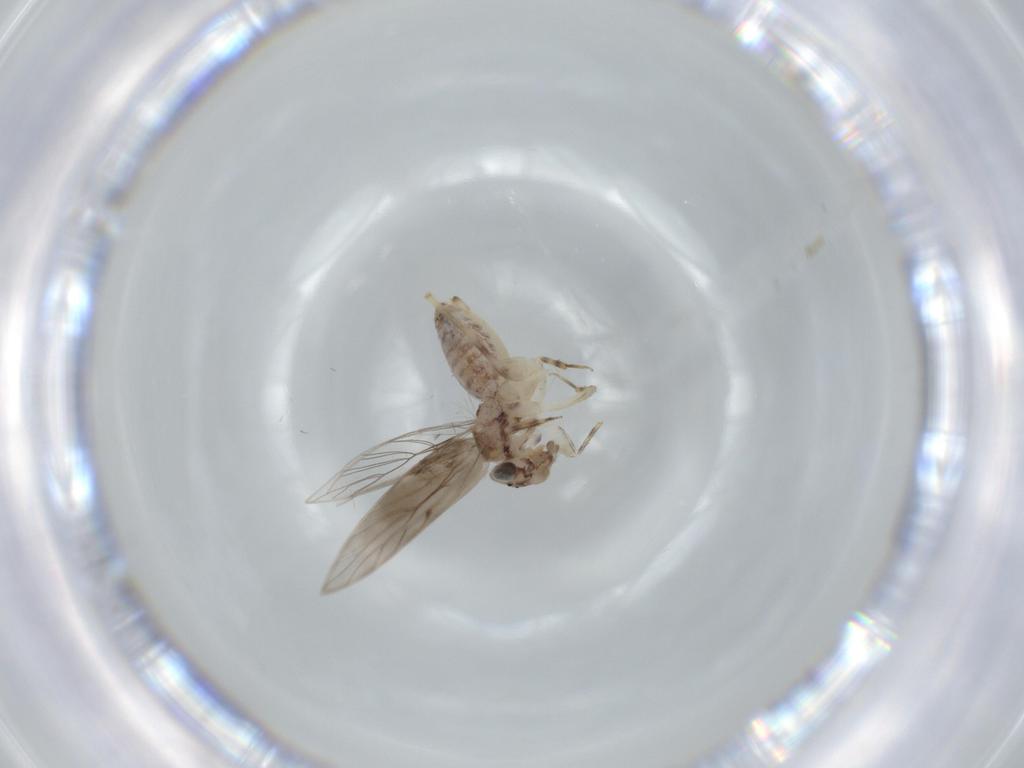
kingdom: Animalia
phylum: Arthropoda
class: Insecta
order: Psocodea
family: Lepidopsocidae
